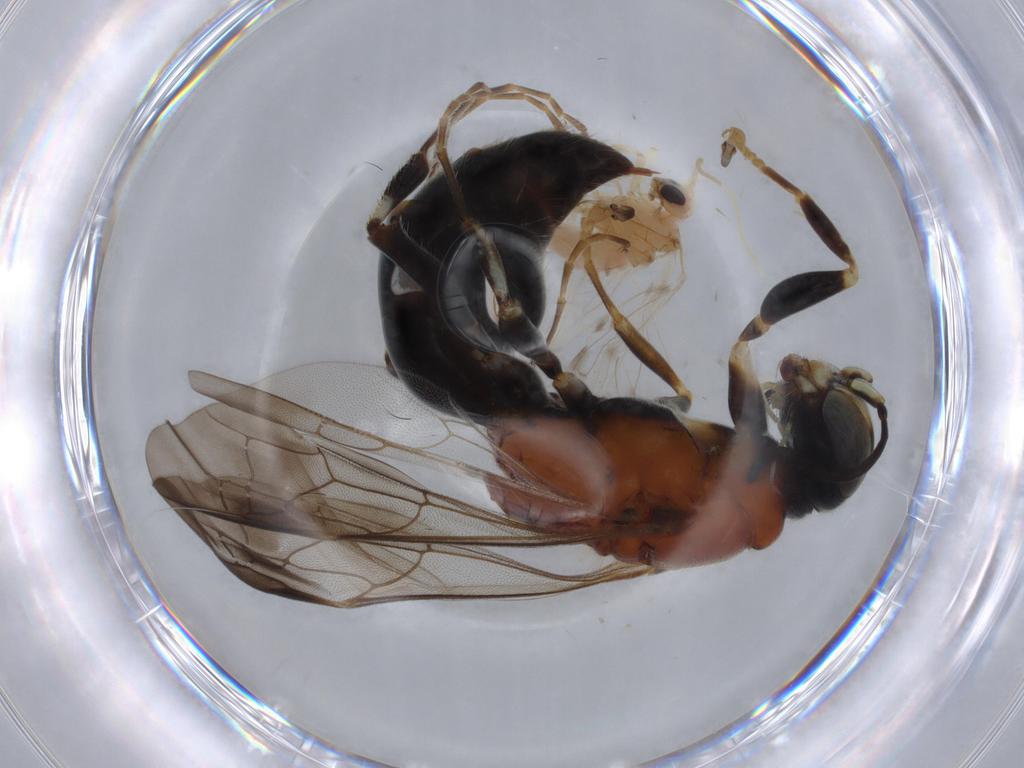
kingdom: Animalia
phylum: Arthropoda
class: Insecta
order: Hymenoptera
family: Bembicidae
